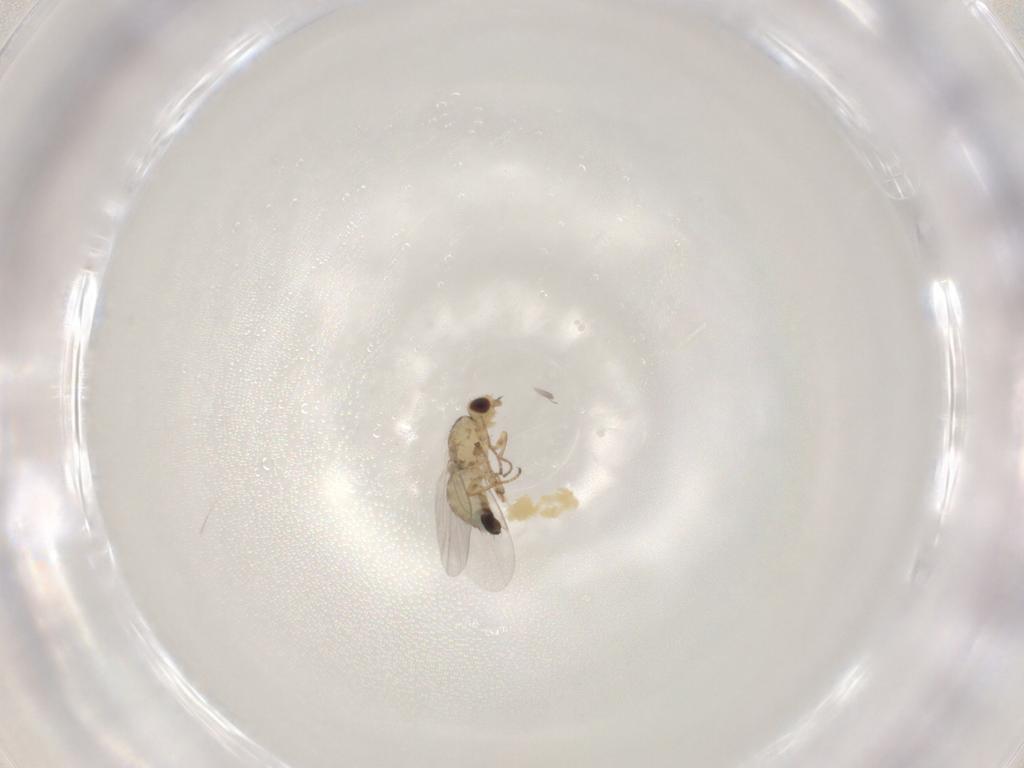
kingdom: Animalia
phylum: Arthropoda
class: Insecta
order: Diptera
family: Agromyzidae
